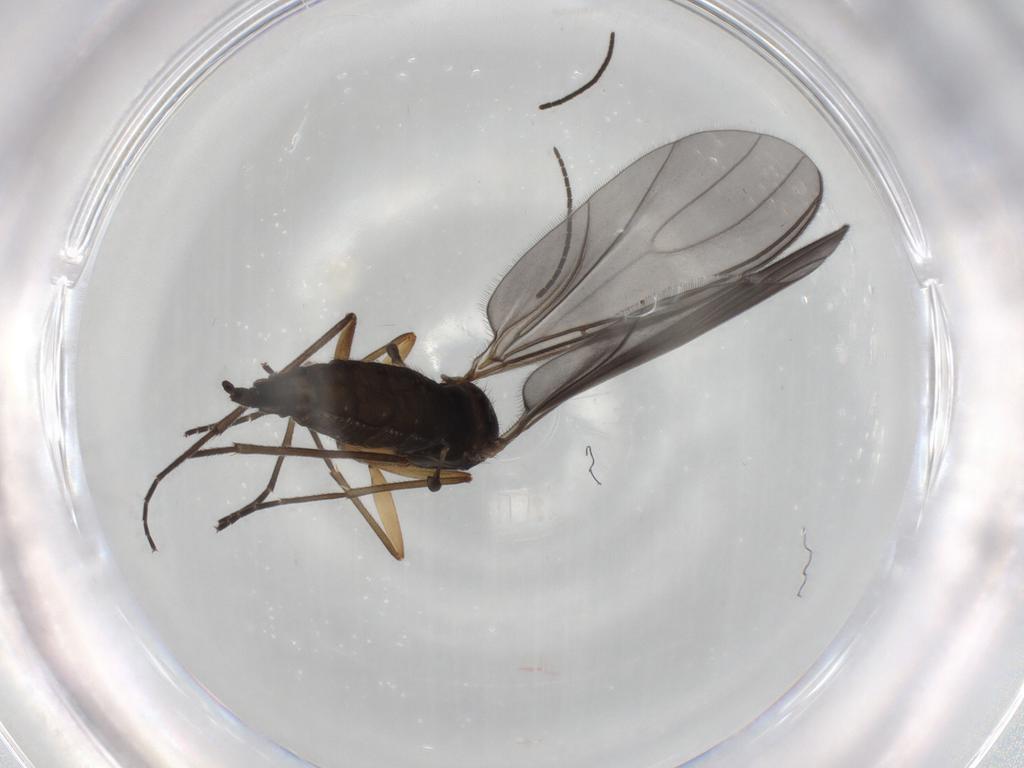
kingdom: Animalia
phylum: Arthropoda
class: Insecta
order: Diptera
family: Sciaridae
